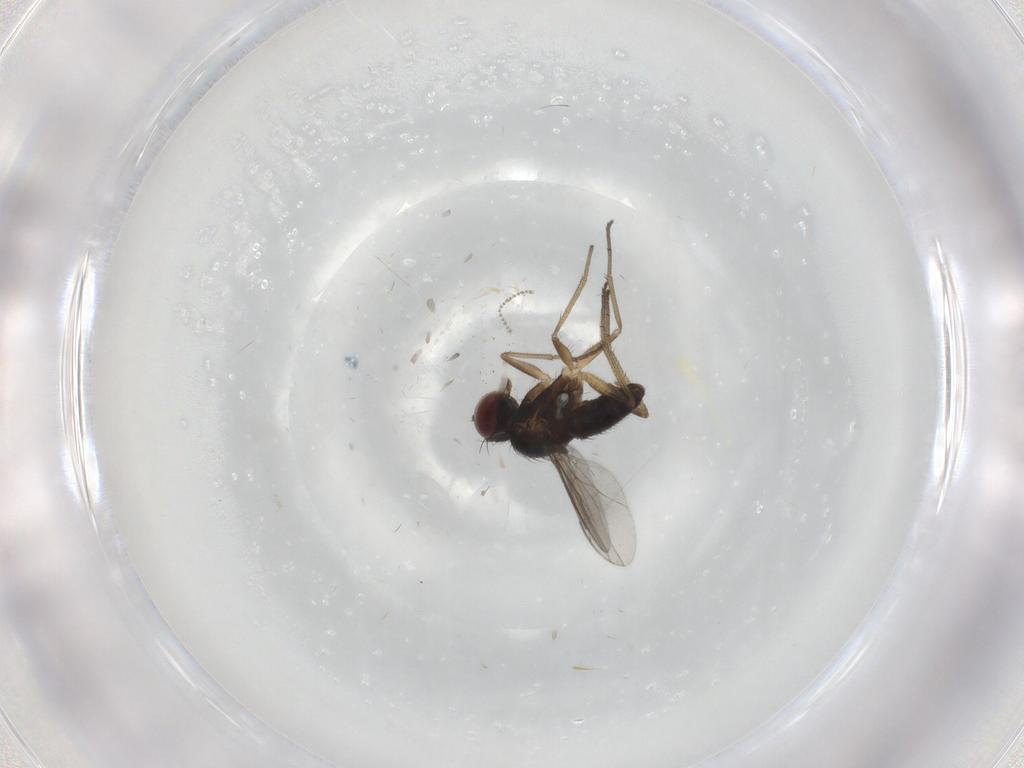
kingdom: Animalia
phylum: Arthropoda
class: Insecta
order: Diptera
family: Dolichopodidae
